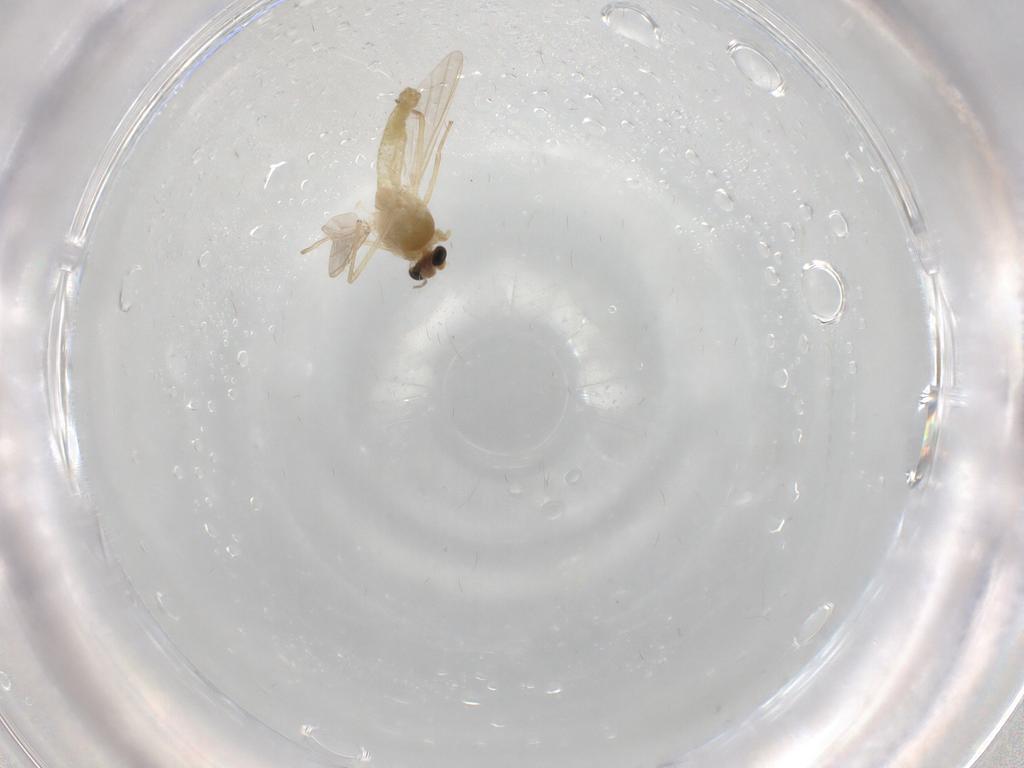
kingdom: Animalia
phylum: Arthropoda
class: Insecta
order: Diptera
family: Chironomidae
